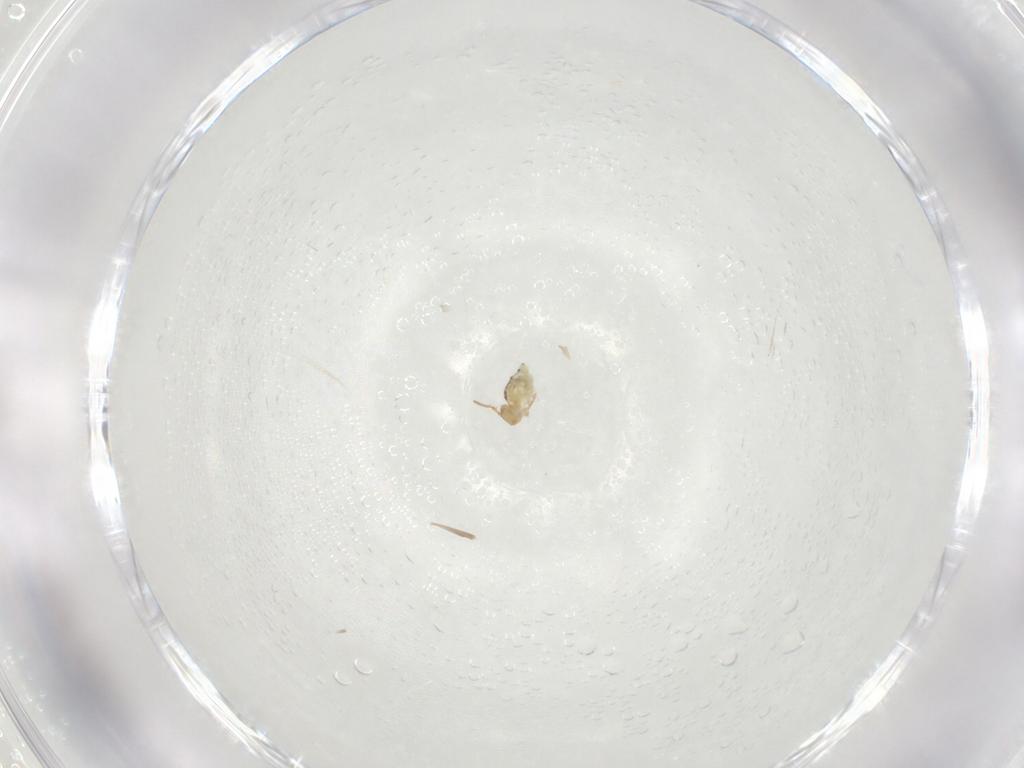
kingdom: Animalia
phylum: Arthropoda
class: Collembola
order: Symphypleona
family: Bourletiellidae
